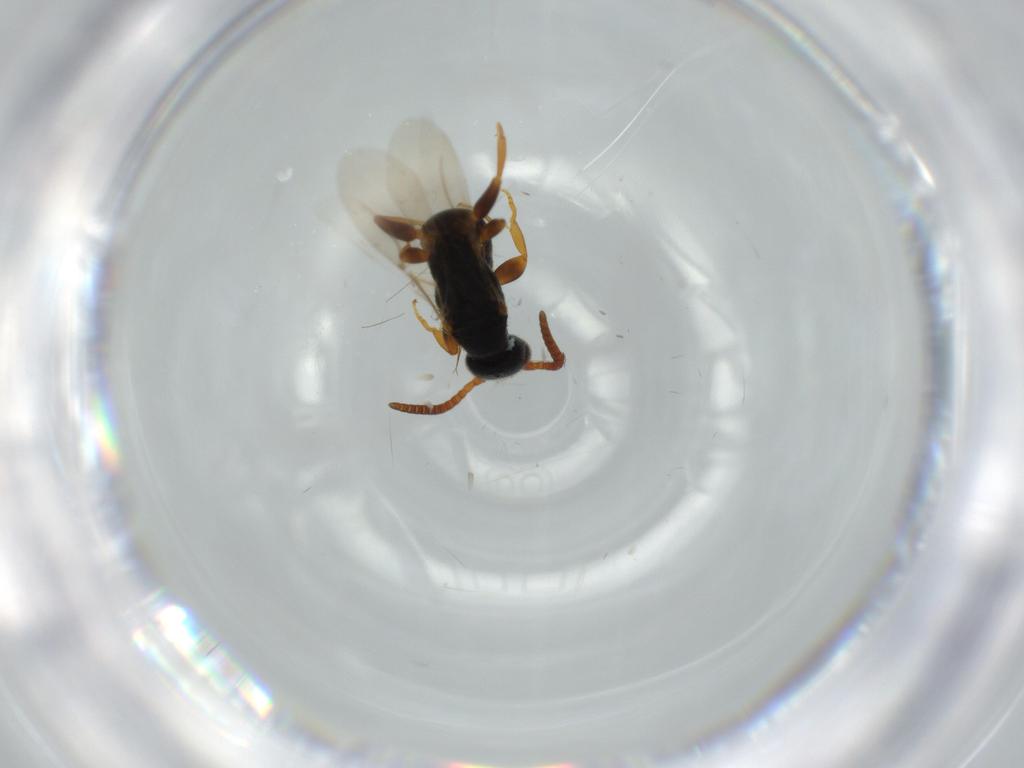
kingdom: Animalia
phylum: Arthropoda
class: Insecta
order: Hymenoptera
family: Bethylidae
